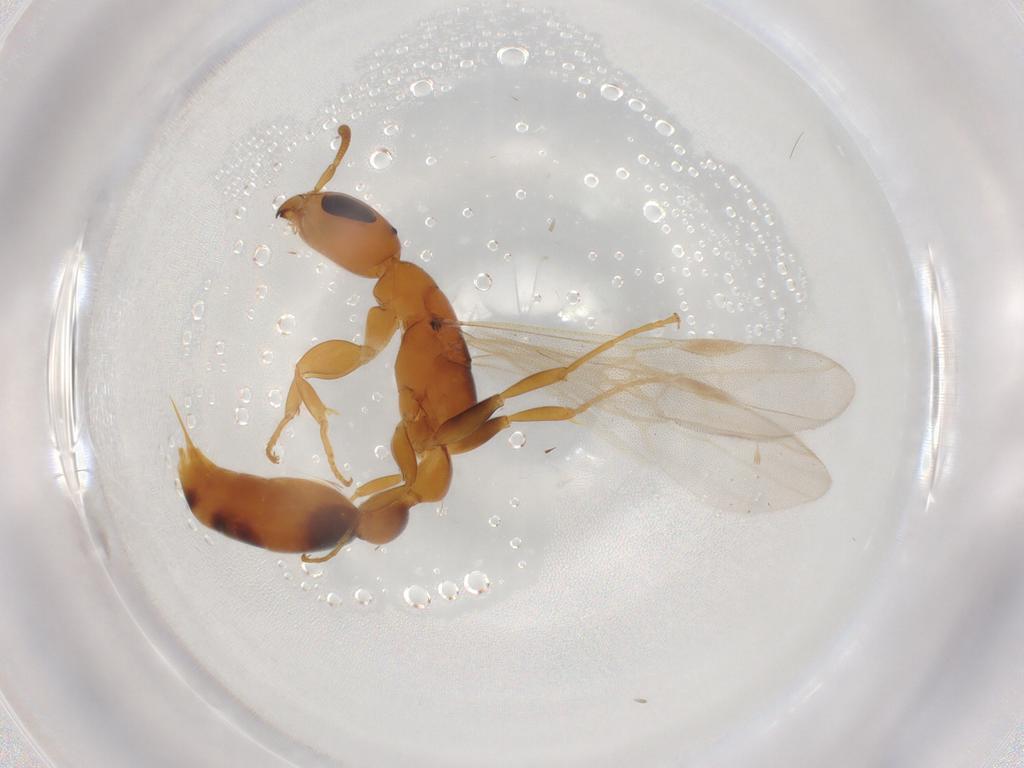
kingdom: Animalia
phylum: Arthropoda
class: Insecta
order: Hymenoptera
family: Formicidae
